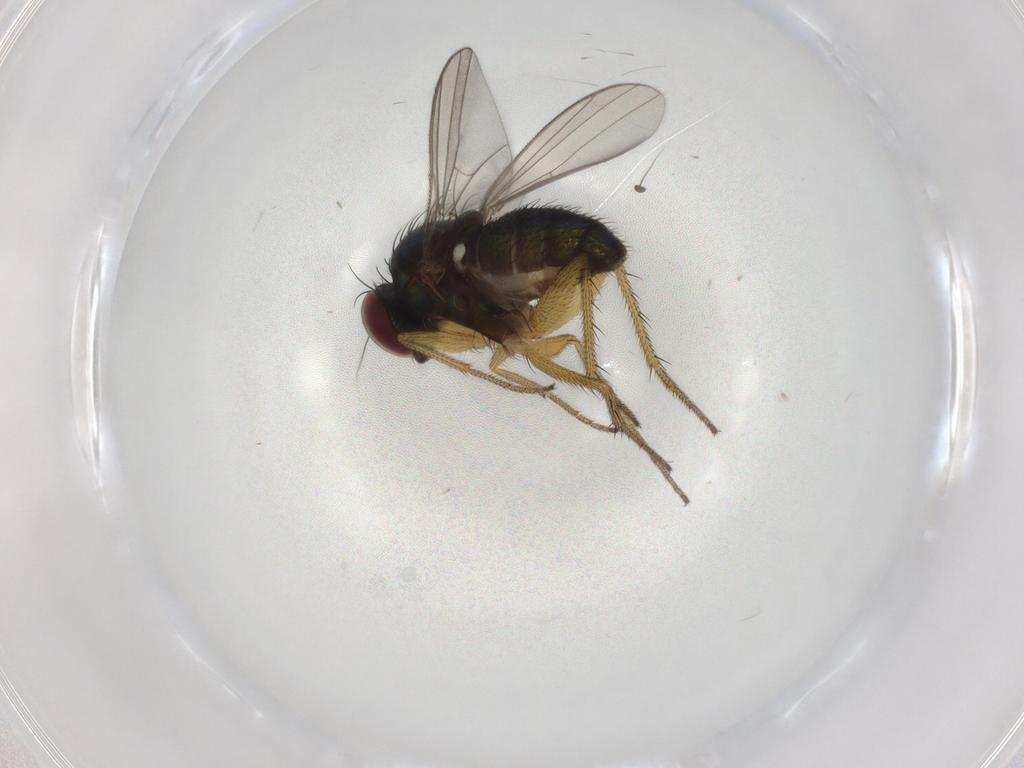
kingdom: Animalia
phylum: Arthropoda
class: Insecta
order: Diptera
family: Dolichopodidae
